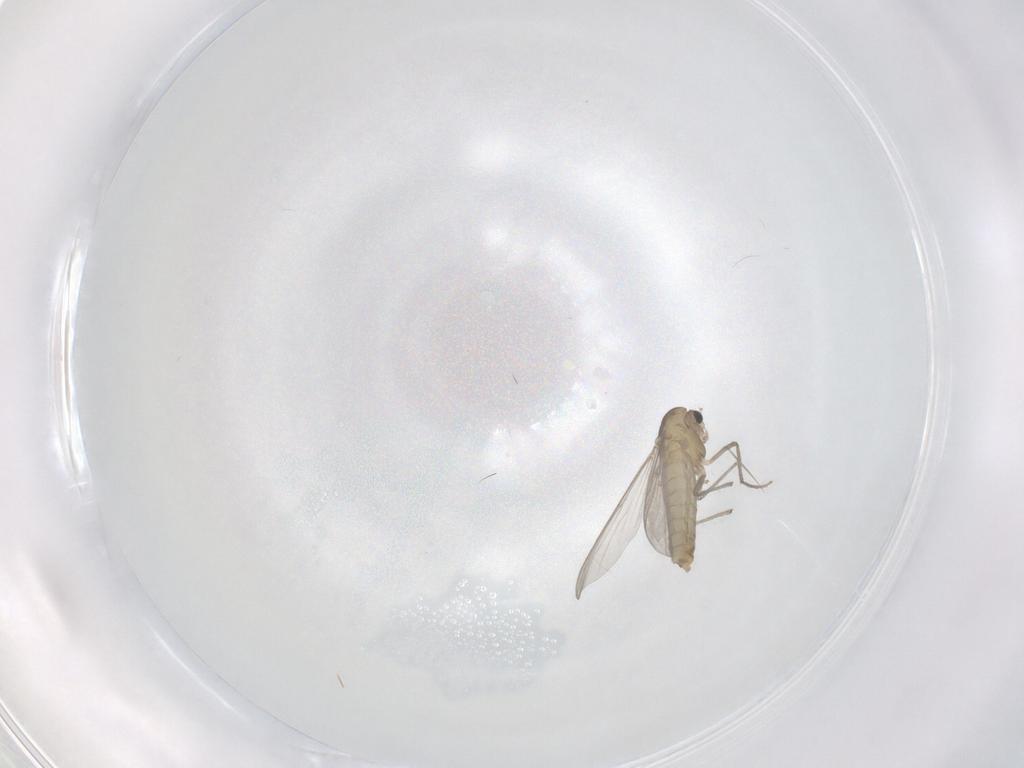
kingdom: Animalia
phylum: Arthropoda
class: Insecta
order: Diptera
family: Chironomidae
